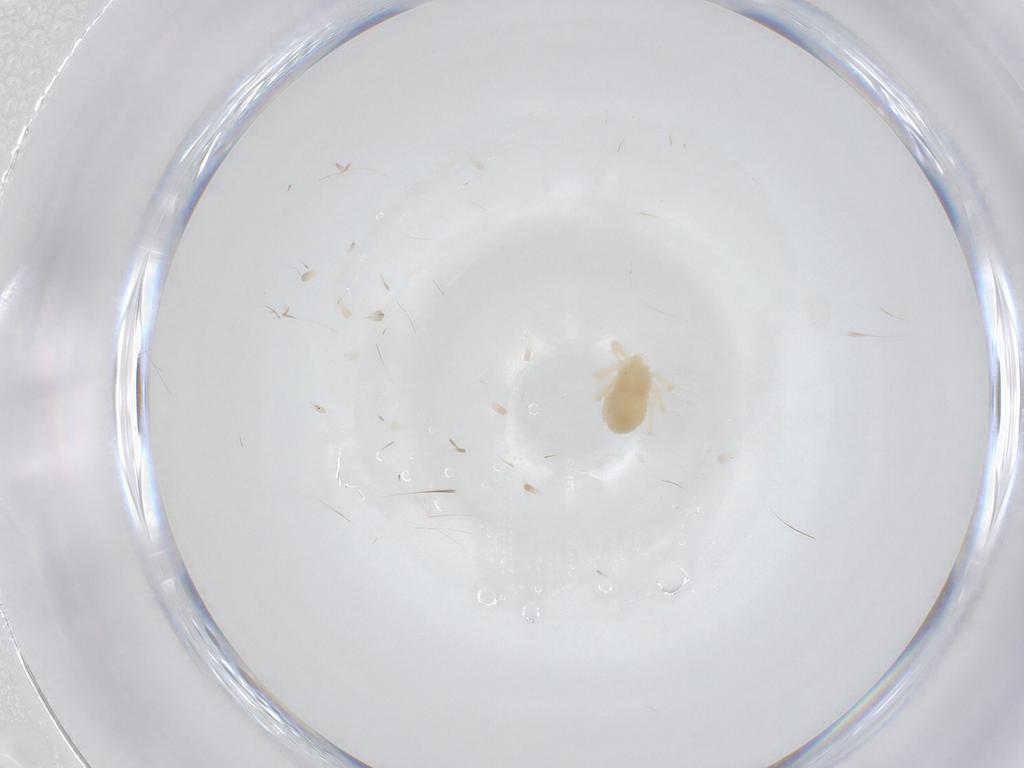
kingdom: Animalia
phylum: Arthropoda
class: Arachnida
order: Trombidiformes
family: Anystidae
